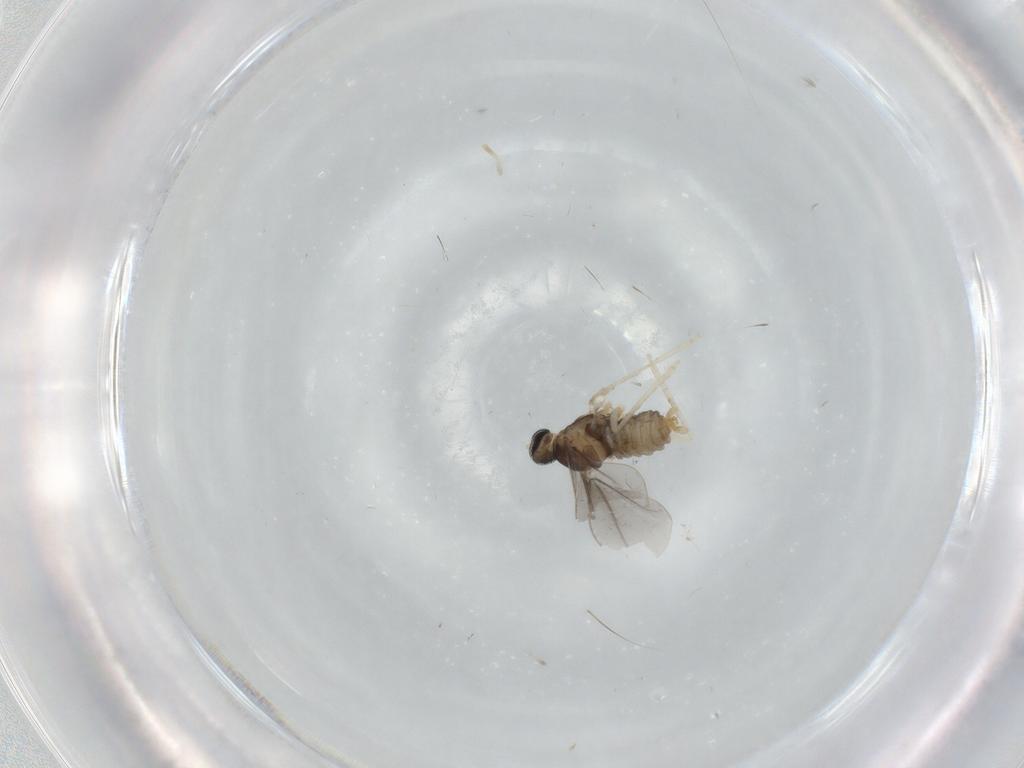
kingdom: Animalia
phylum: Arthropoda
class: Insecta
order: Diptera
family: Cecidomyiidae
